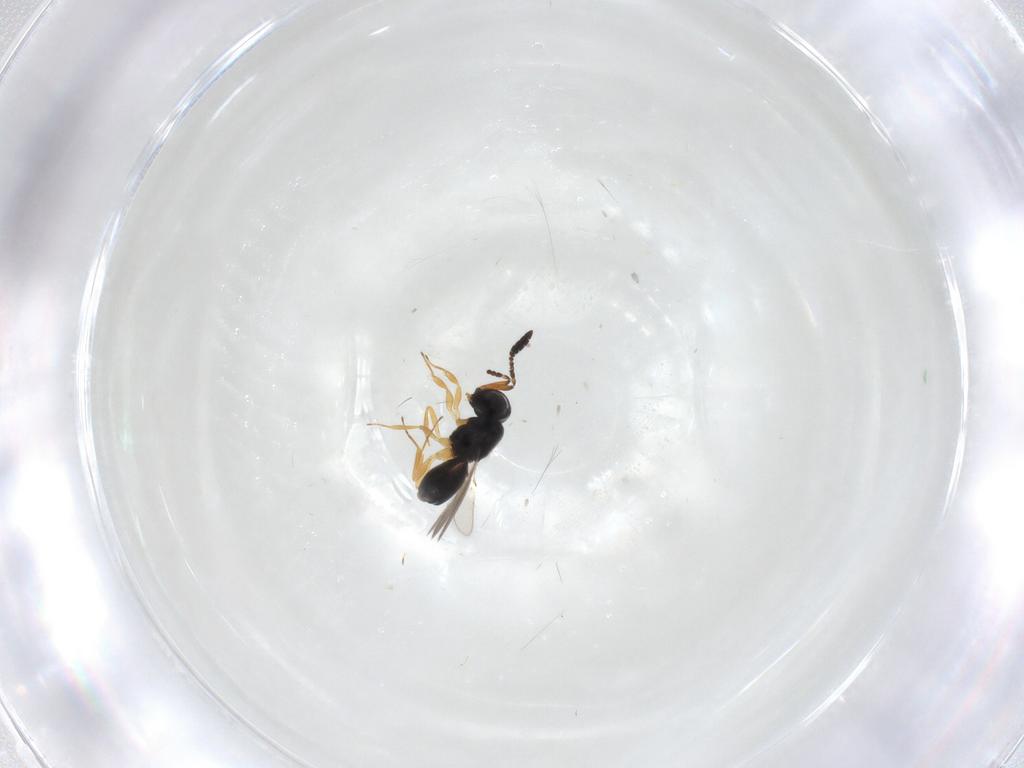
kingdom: Animalia
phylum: Arthropoda
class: Insecta
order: Hymenoptera
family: Scelionidae
